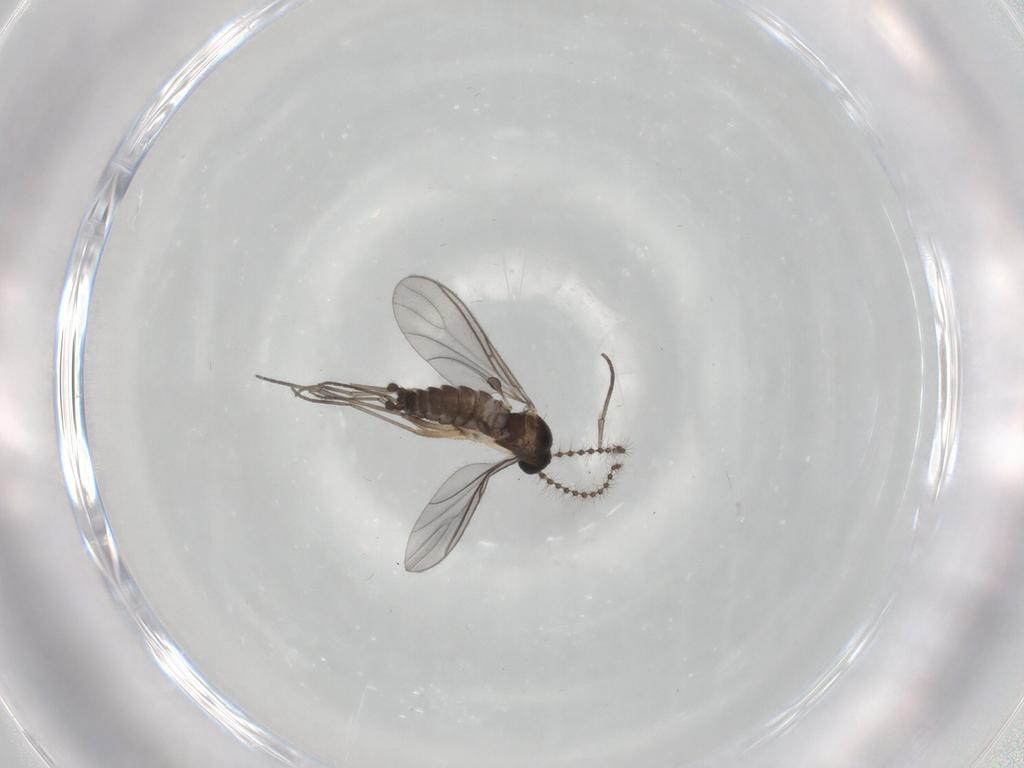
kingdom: Animalia
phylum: Arthropoda
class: Insecta
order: Diptera
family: Sciaridae
